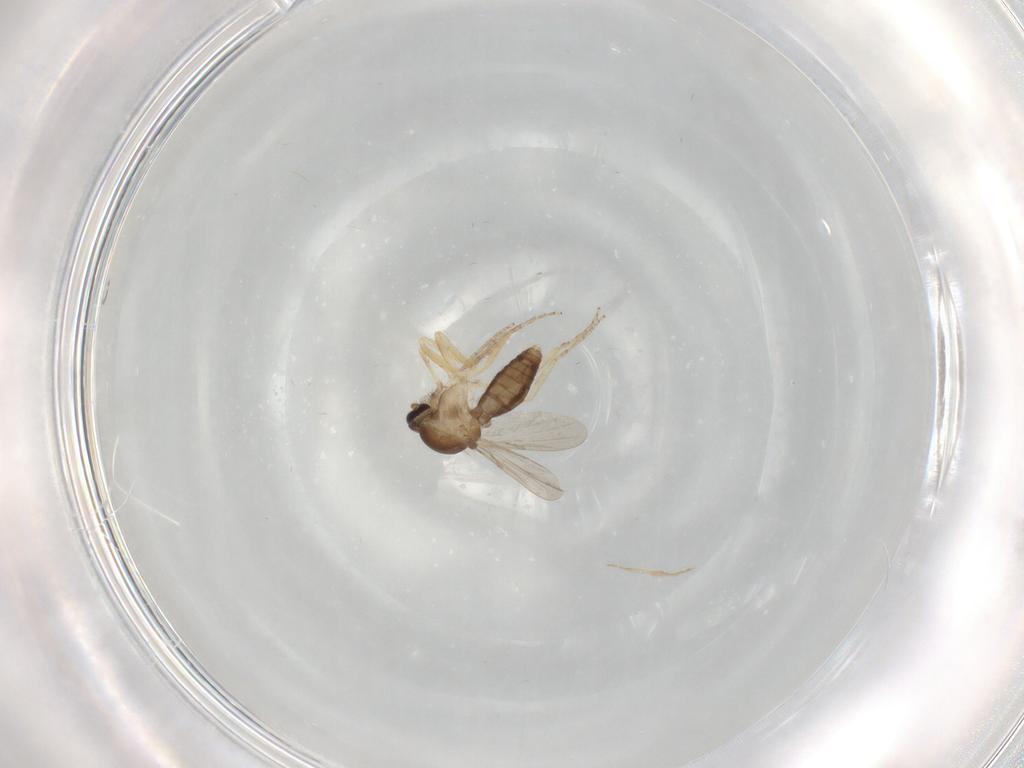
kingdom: Animalia
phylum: Arthropoda
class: Insecta
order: Diptera
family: Ceratopogonidae
